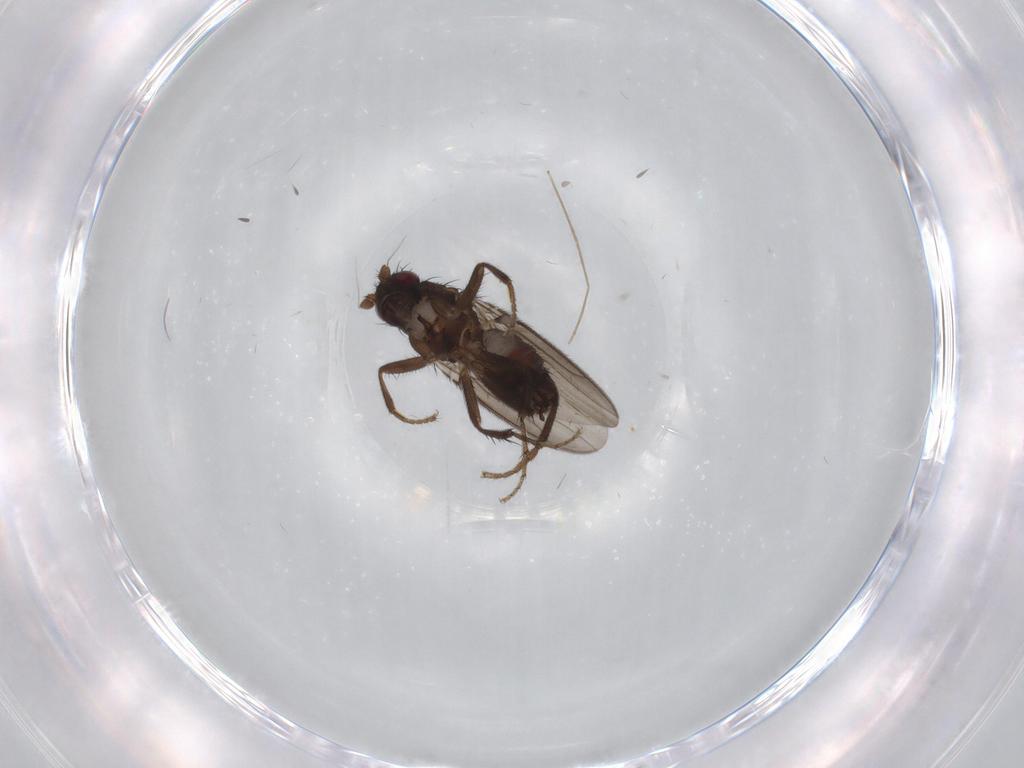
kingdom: Animalia
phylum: Arthropoda
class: Insecta
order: Diptera
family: Chironomidae
